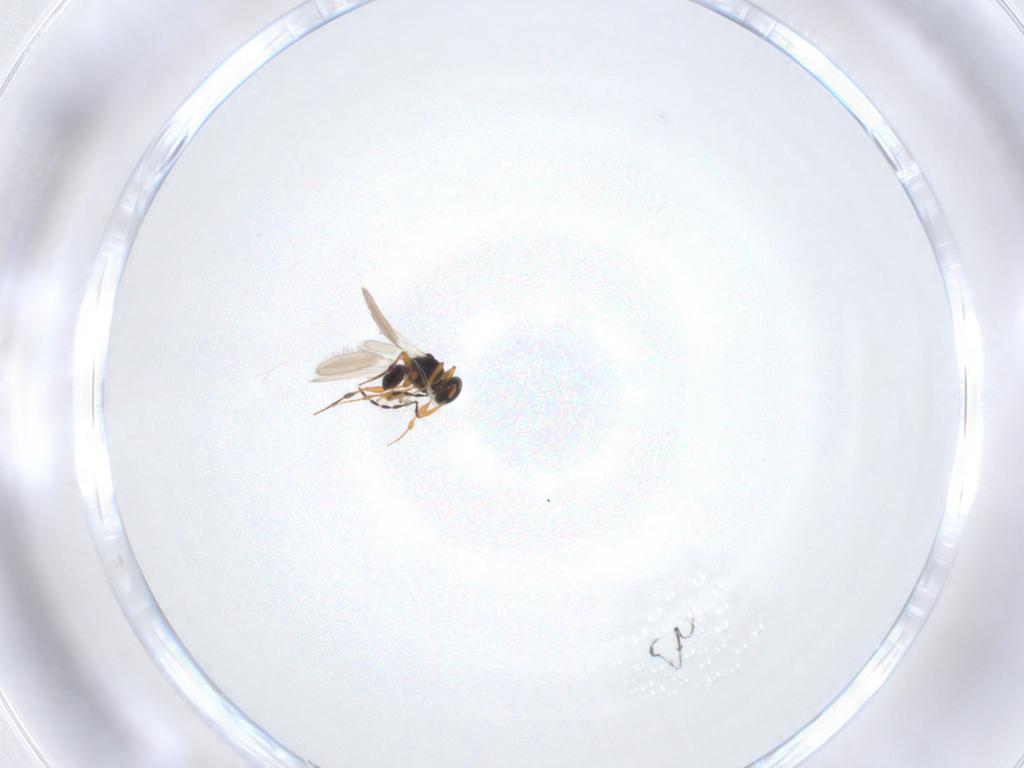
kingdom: Animalia
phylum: Arthropoda
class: Insecta
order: Hymenoptera
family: Platygastridae
